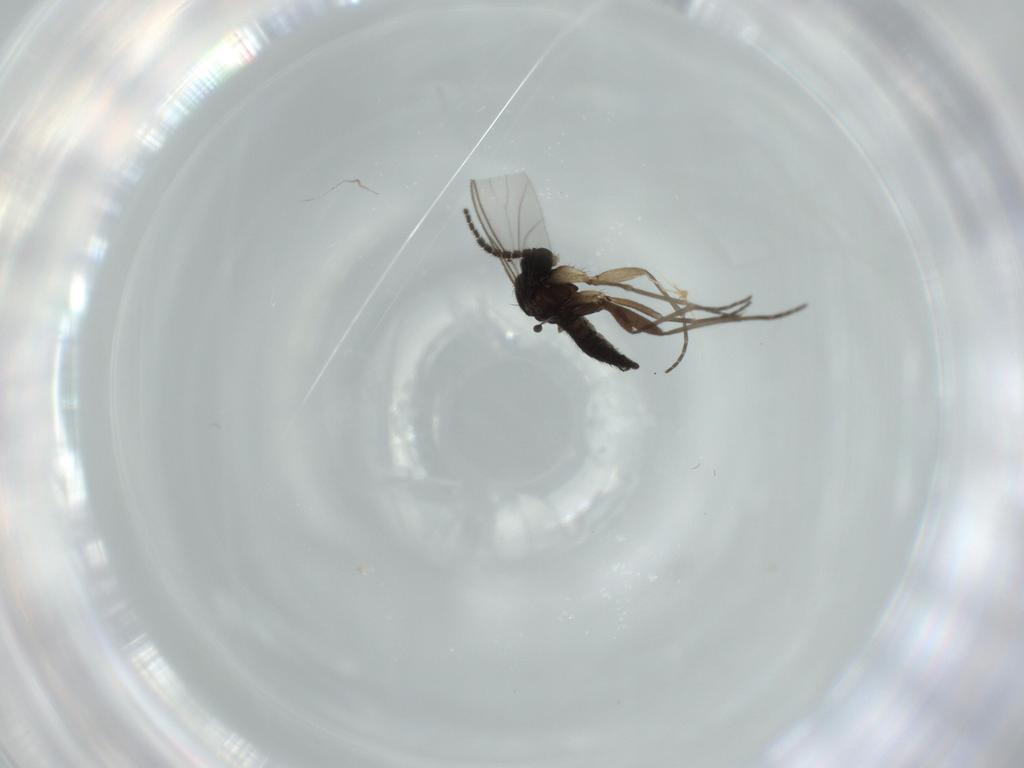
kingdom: Animalia
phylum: Arthropoda
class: Insecta
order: Diptera
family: Sciaridae
